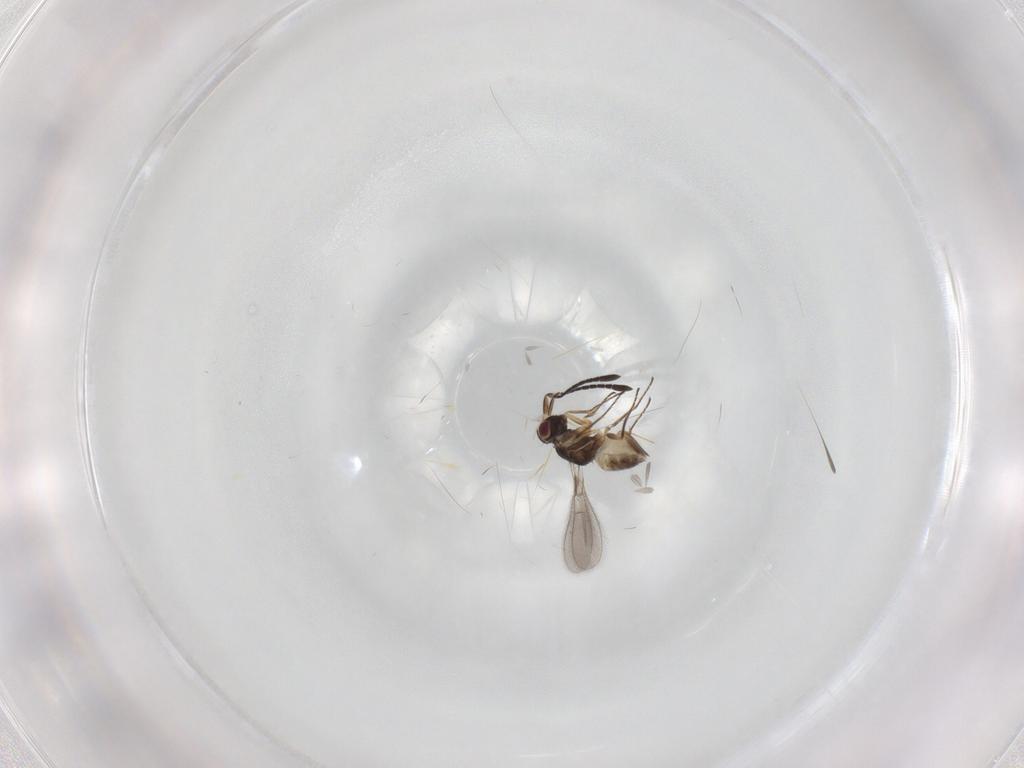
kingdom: Animalia
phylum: Arthropoda
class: Insecta
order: Hymenoptera
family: Mymaridae
